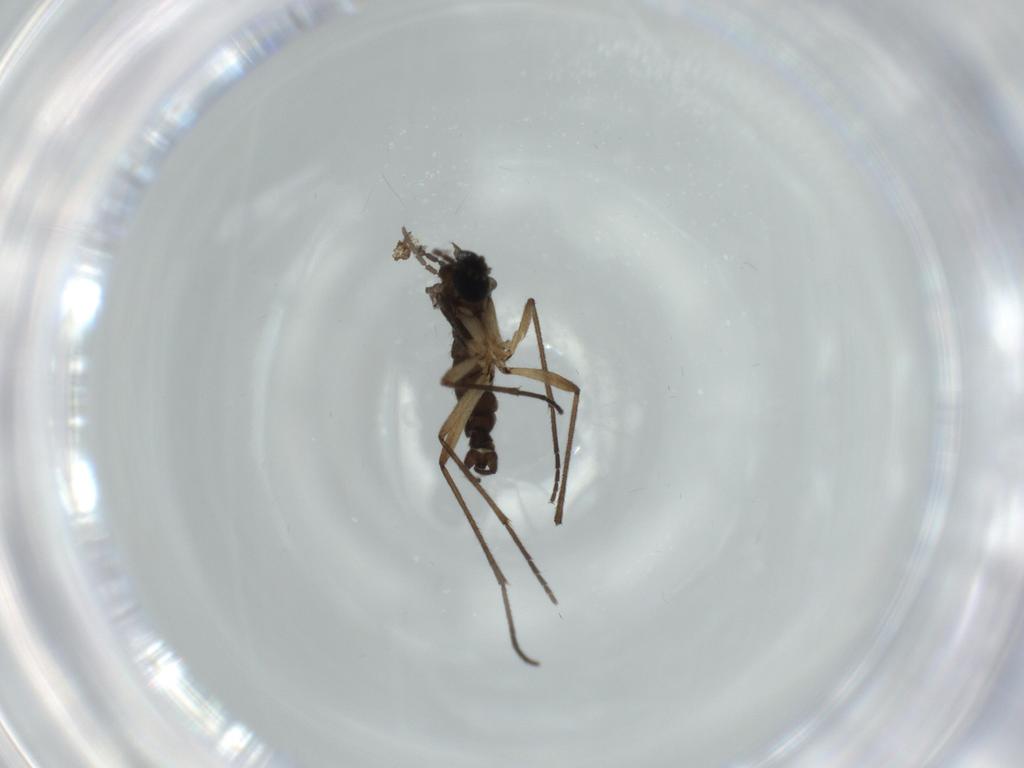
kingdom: Animalia
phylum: Arthropoda
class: Insecta
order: Diptera
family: Sciaridae
